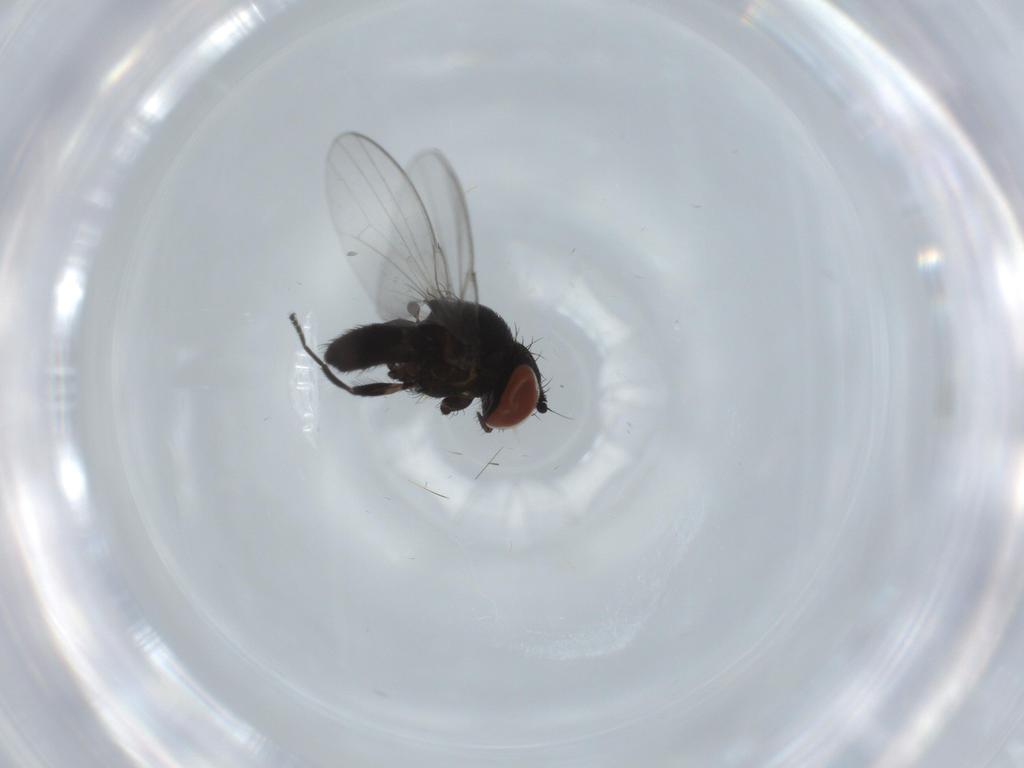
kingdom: Animalia
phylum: Arthropoda
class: Insecta
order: Diptera
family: Milichiidae
